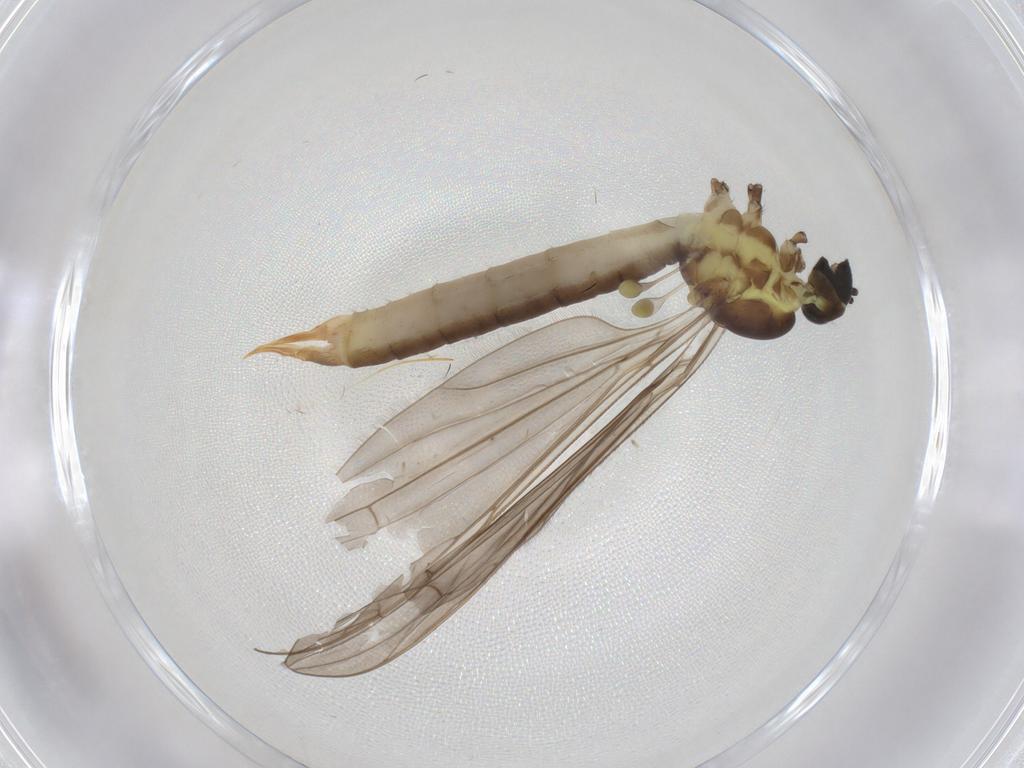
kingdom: Animalia
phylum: Arthropoda
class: Insecta
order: Diptera
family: Phoridae
